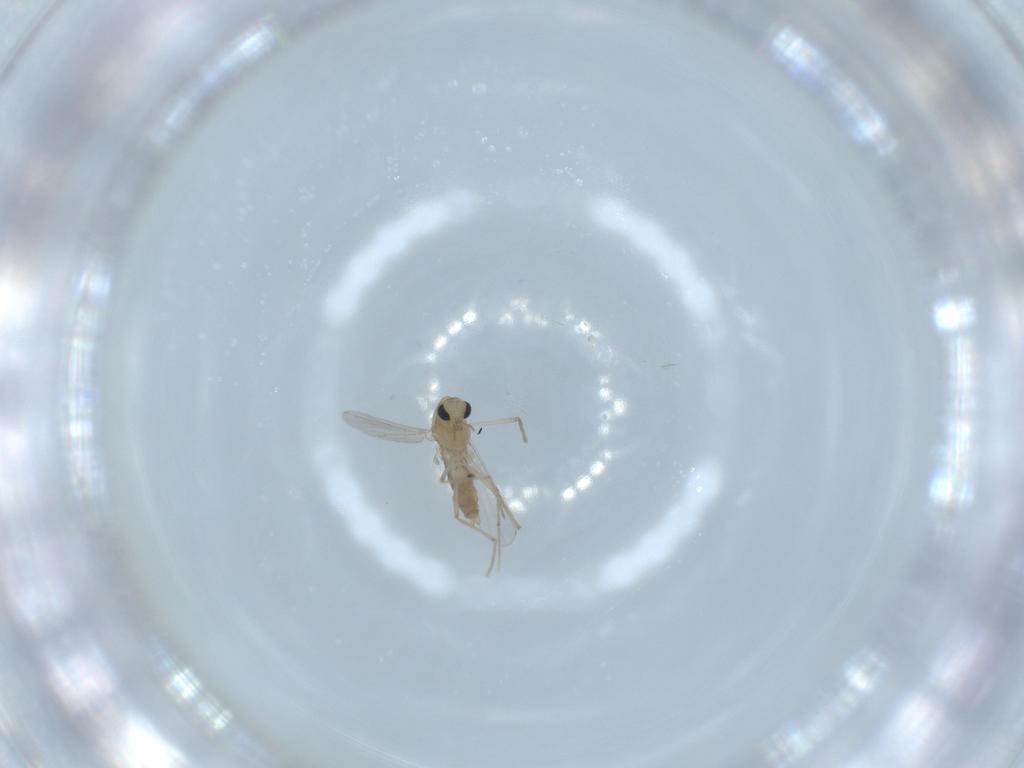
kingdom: Animalia
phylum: Arthropoda
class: Insecta
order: Diptera
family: Chironomidae
